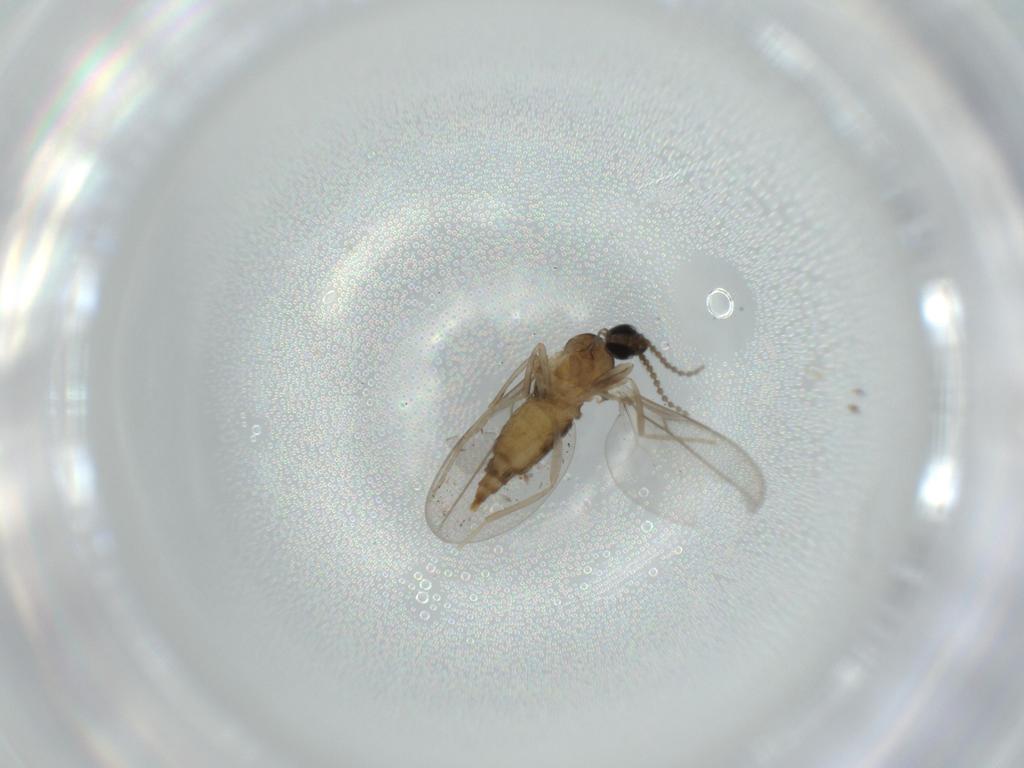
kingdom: Animalia
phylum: Arthropoda
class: Insecta
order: Diptera
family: Cecidomyiidae
